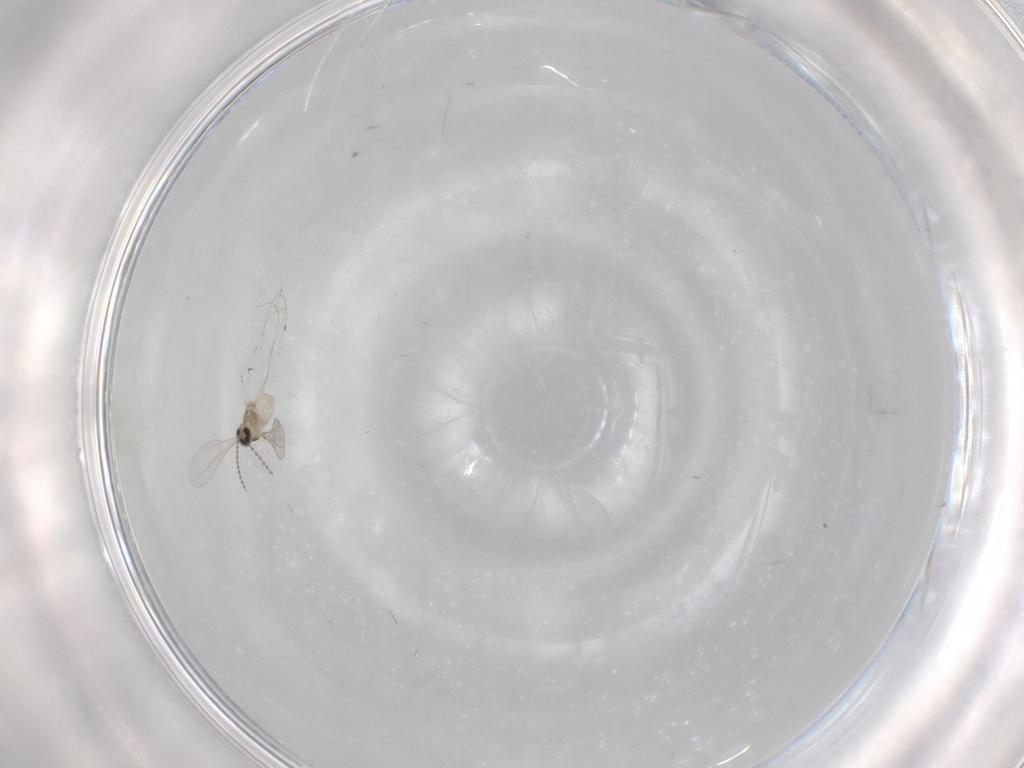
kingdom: Animalia
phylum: Arthropoda
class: Insecta
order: Diptera
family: Cecidomyiidae
